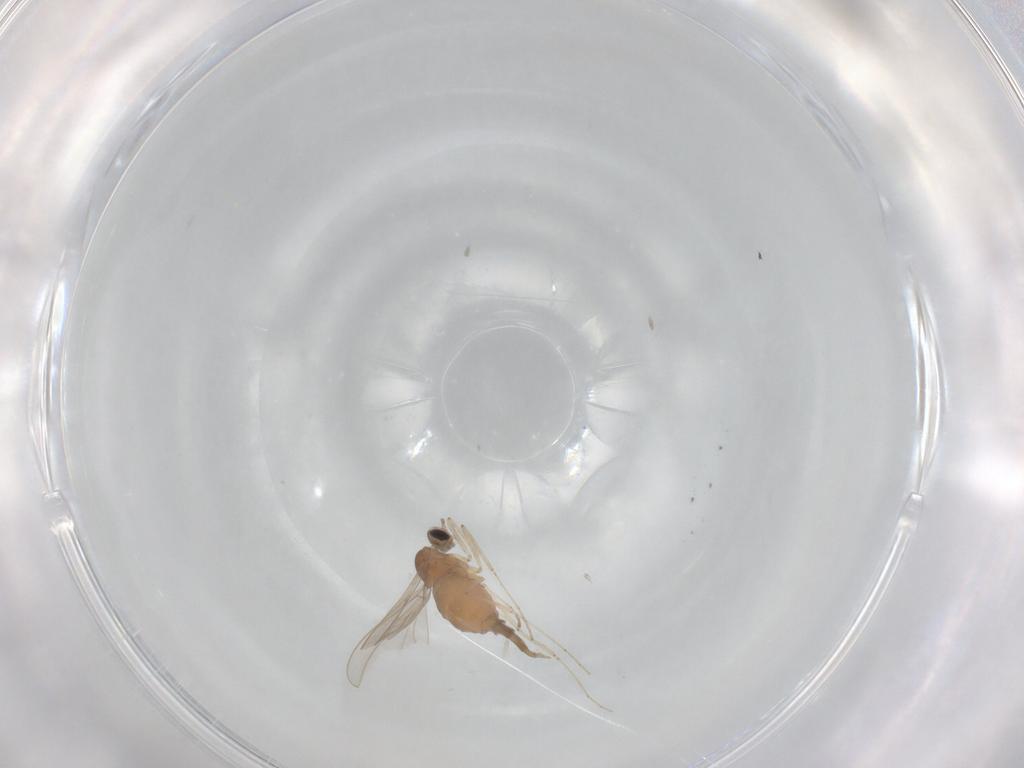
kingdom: Animalia
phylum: Arthropoda
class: Insecta
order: Diptera
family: Cecidomyiidae
